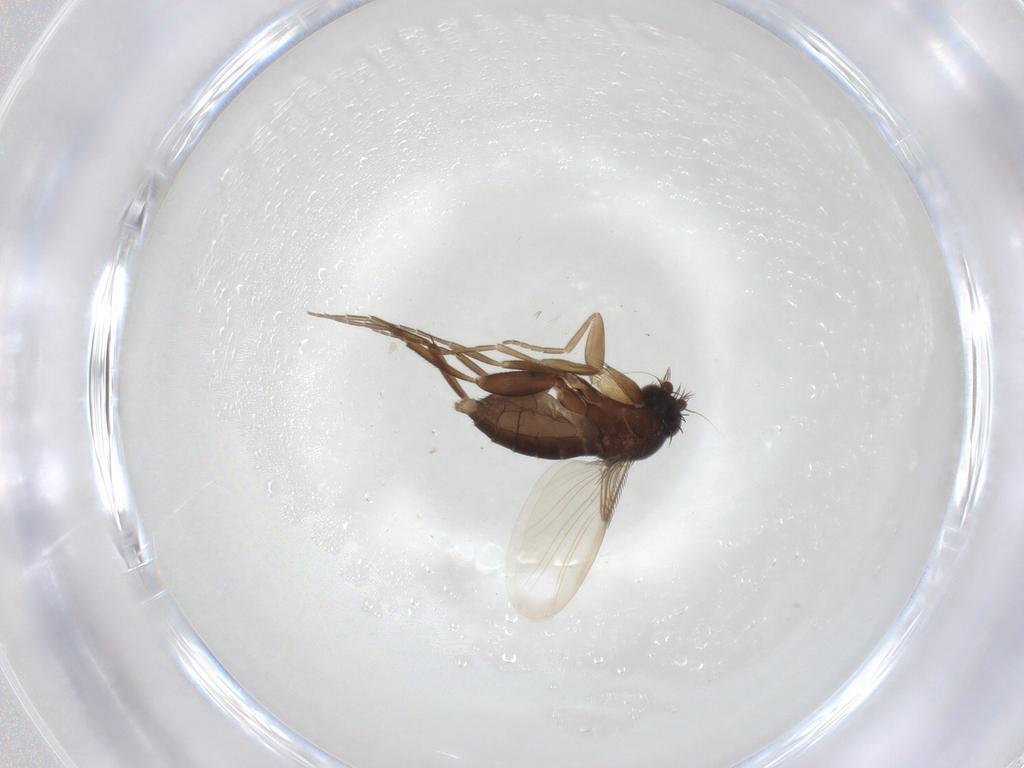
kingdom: Animalia
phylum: Arthropoda
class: Insecta
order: Diptera
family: Phoridae
